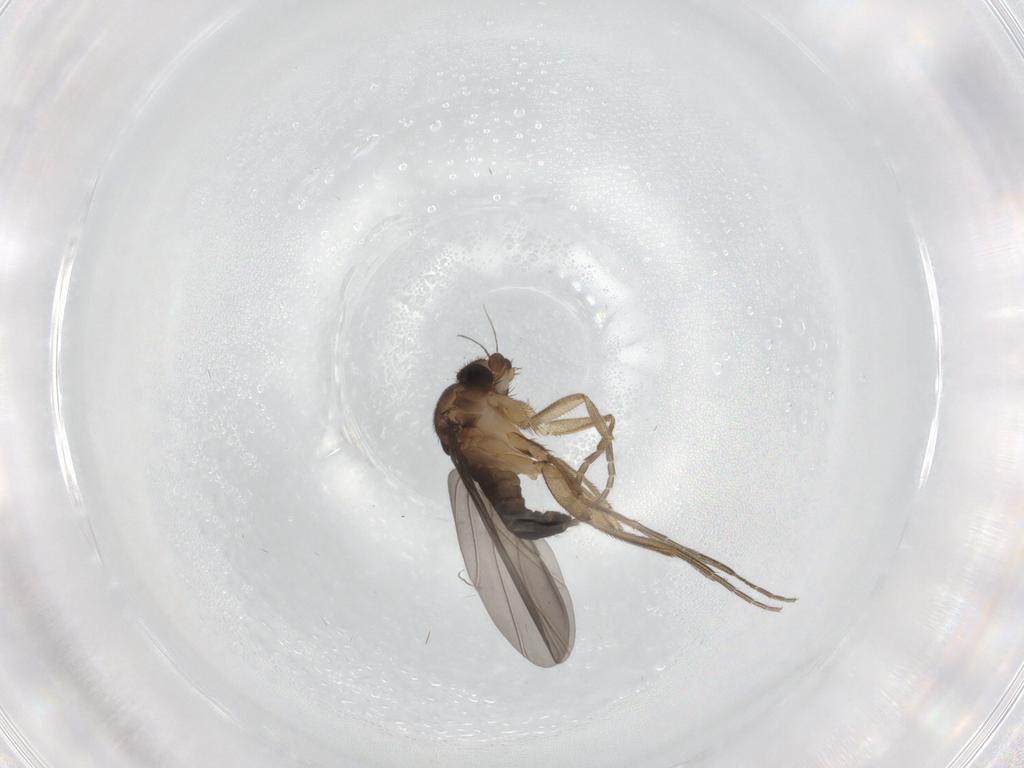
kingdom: Animalia
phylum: Arthropoda
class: Insecta
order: Diptera
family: Phoridae
